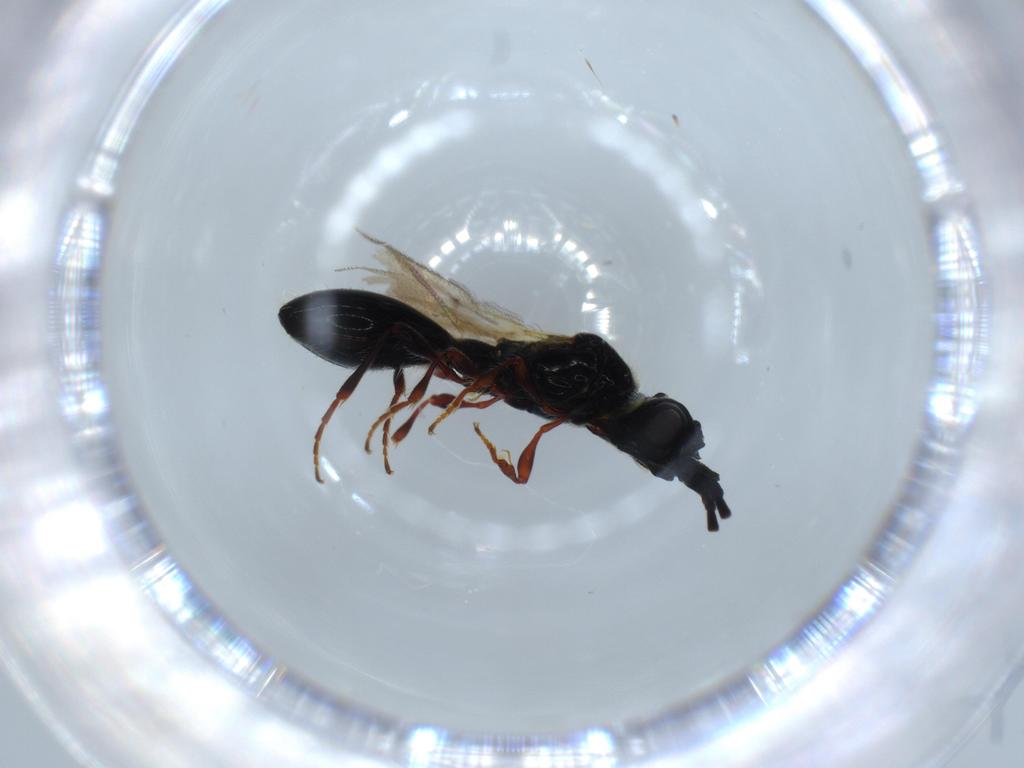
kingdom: Animalia
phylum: Arthropoda
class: Insecta
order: Hymenoptera
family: Diapriidae
